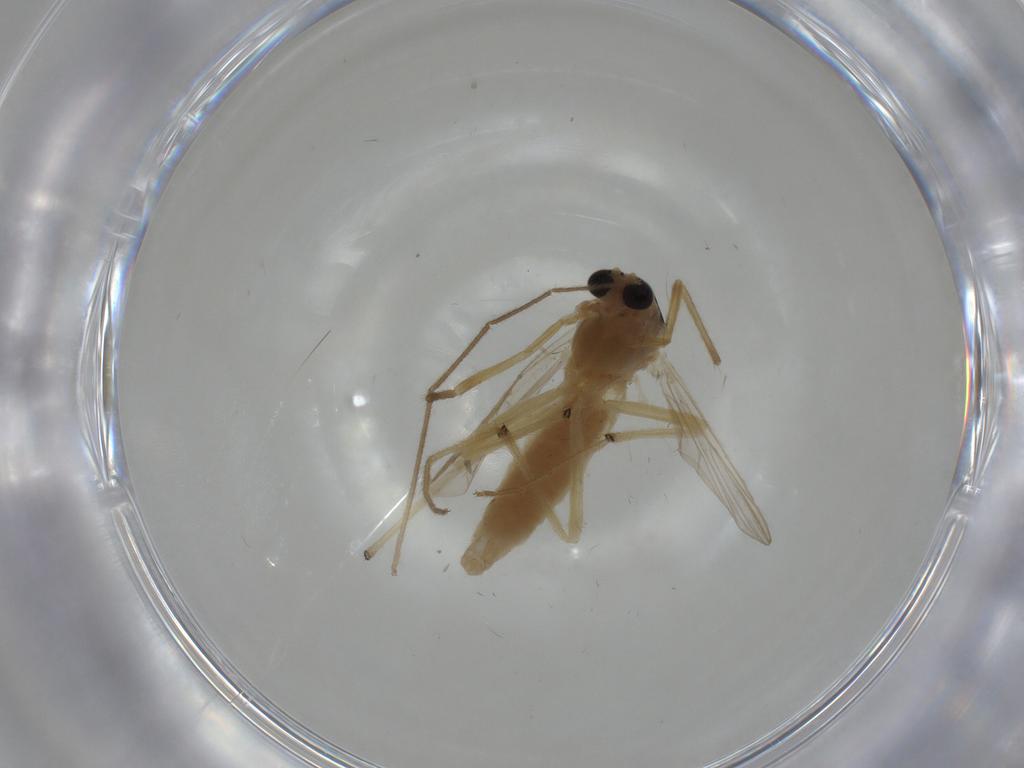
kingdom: Animalia
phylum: Arthropoda
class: Insecta
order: Diptera
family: Chironomidae
